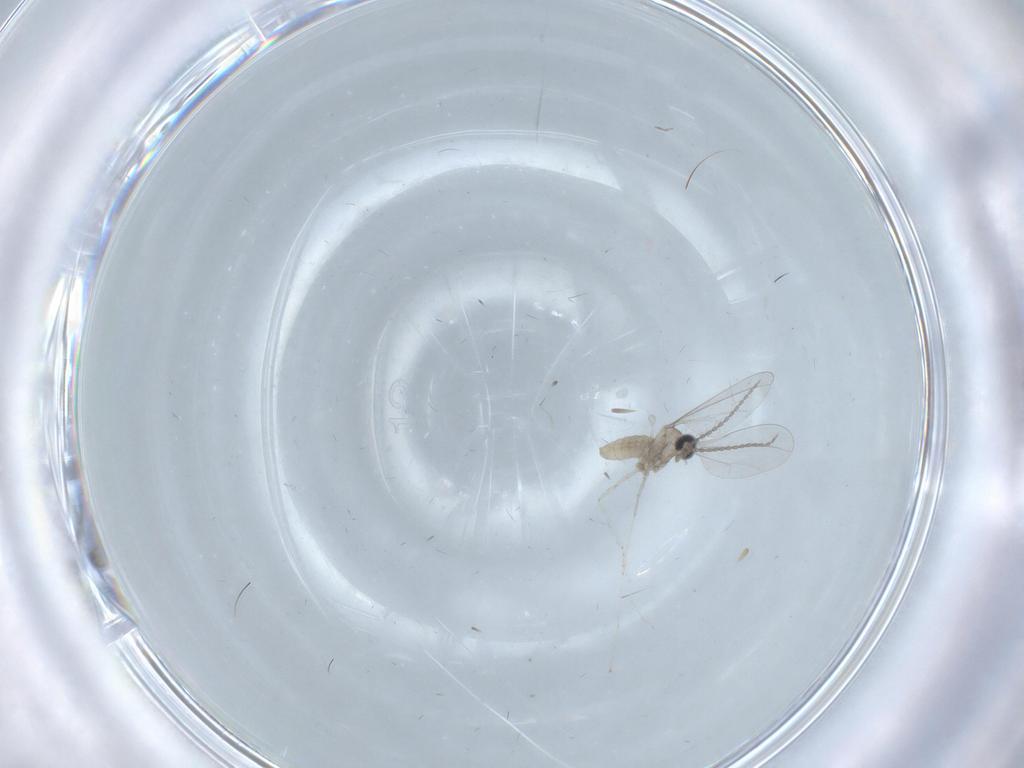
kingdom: Animalia
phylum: Arthropoda
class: Insecta
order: Diptera
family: Cecidomyiidae
